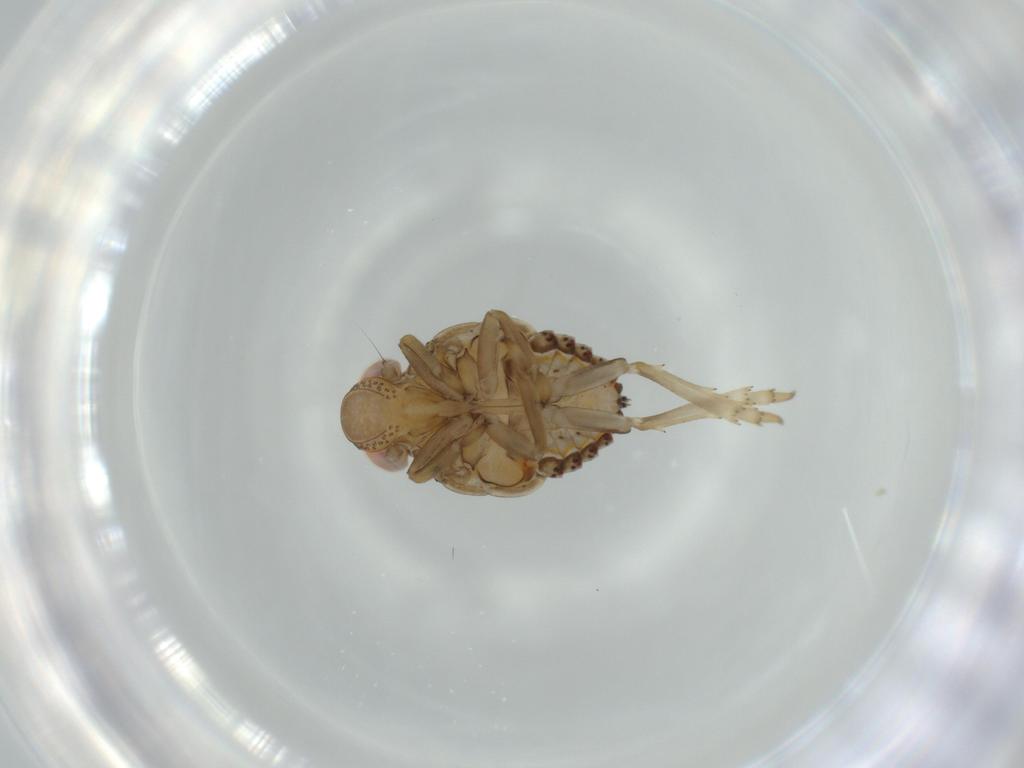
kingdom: Animalia
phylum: Arthropoda
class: Insecta
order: Hemiptera
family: Issidae
